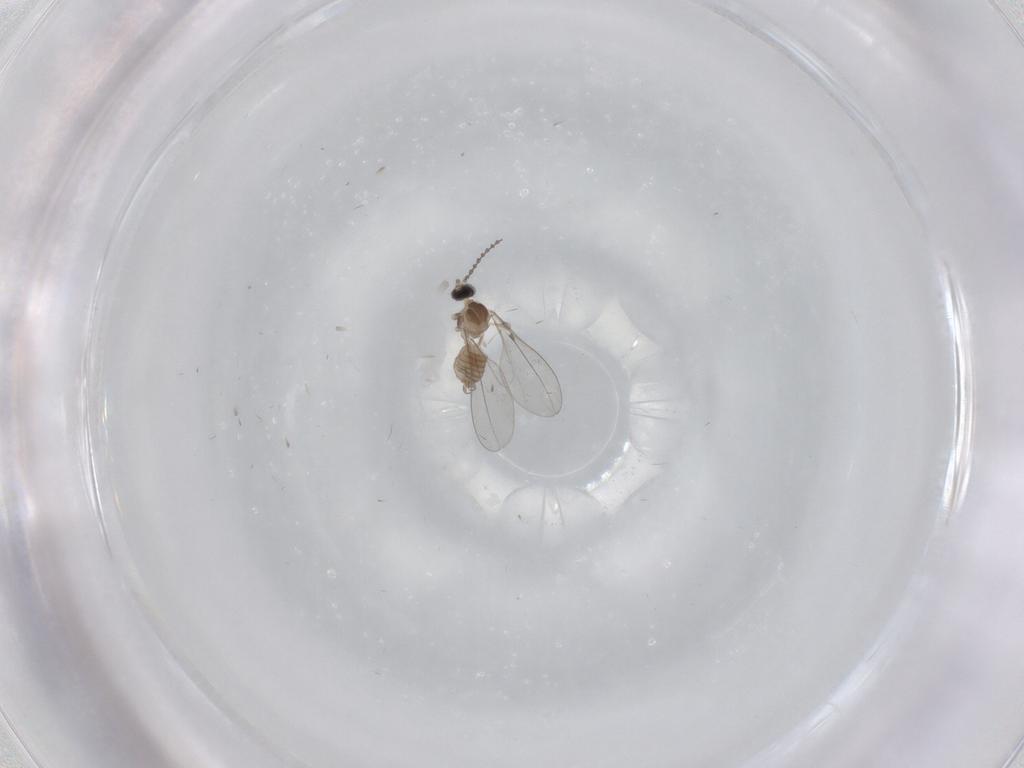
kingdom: Animalia
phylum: Arthropoda
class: Insecta
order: Diptera
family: Cecidomyiidae
